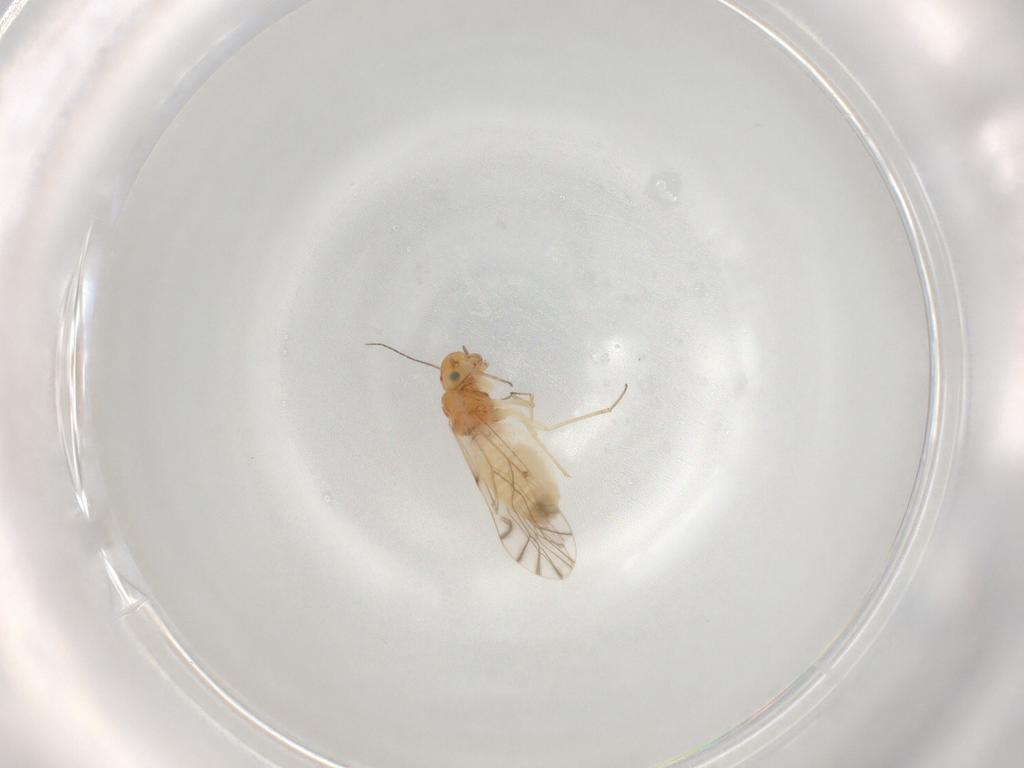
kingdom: Animalia
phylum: Arthropoda
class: Insecta
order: Psocodea
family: Lachesillidae
